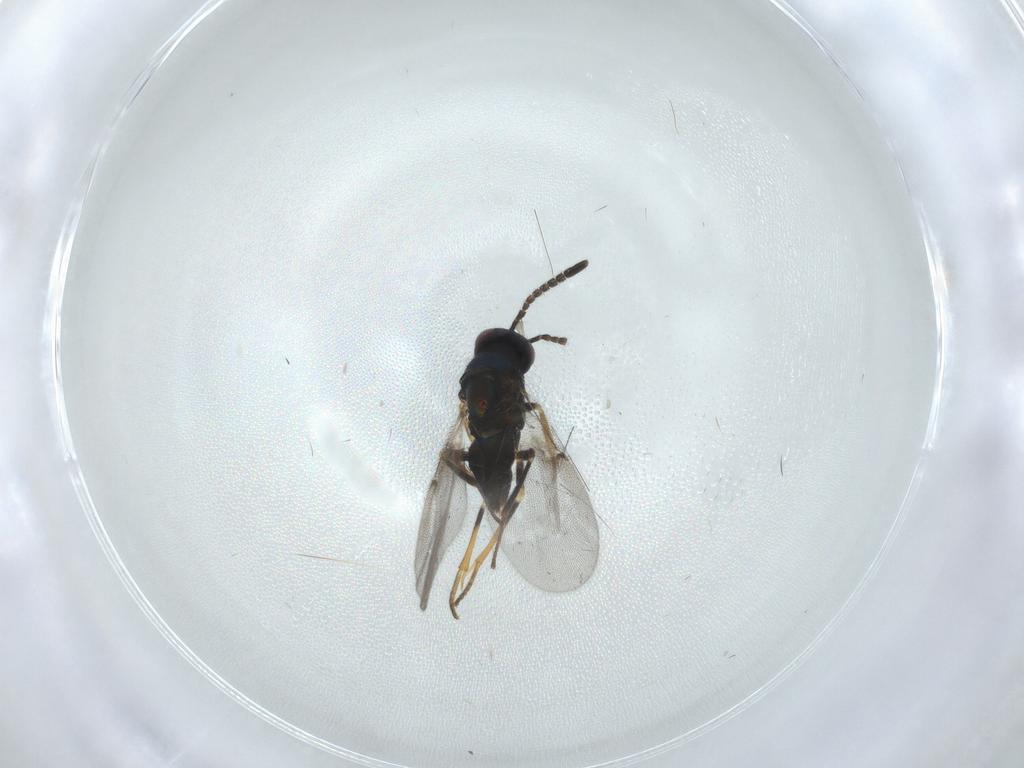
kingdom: Animalia
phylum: Arthropoda
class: Insecta
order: Hymenoptera
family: Encyrtidae
